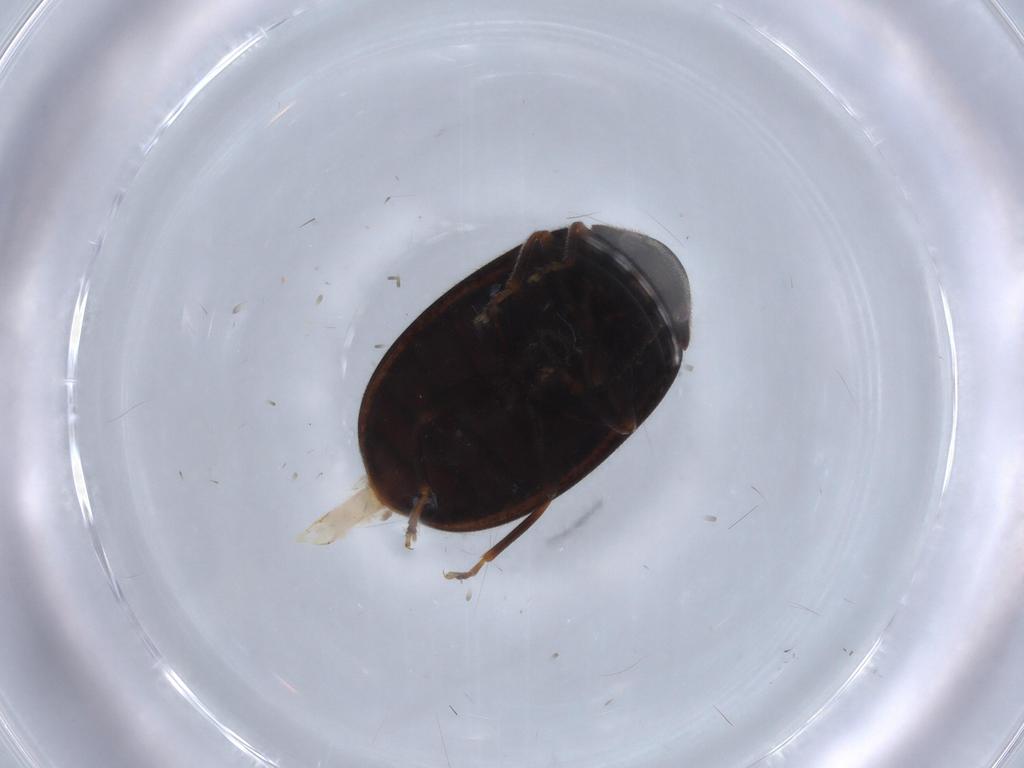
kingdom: Animalia
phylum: Arthropoda
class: Insecta
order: Coleoptera
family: Scirtidae
